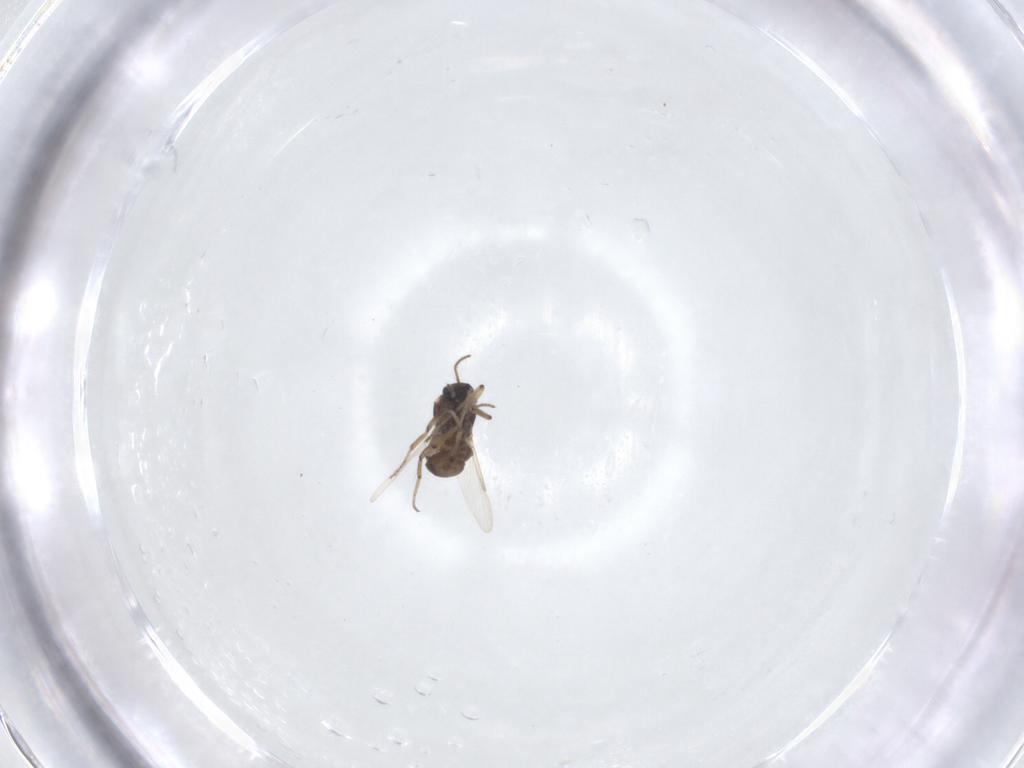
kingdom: Animalia
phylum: Arthropoda
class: Insecta
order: Diptera
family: Ceratopogonidae
